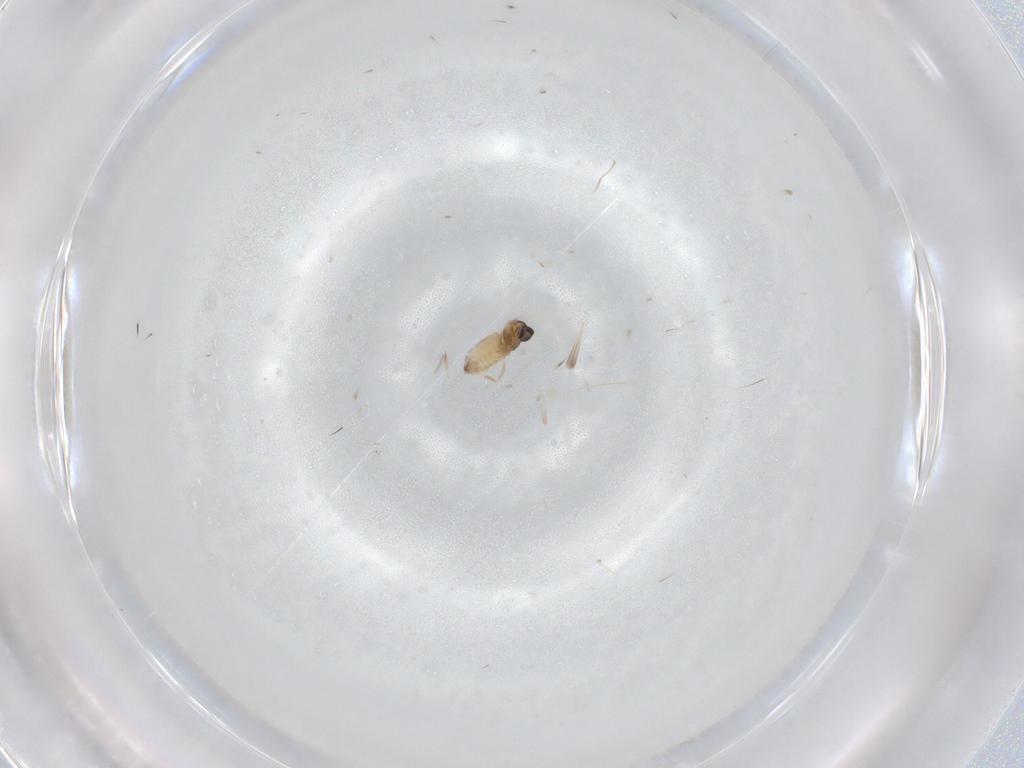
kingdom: Animalia
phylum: Arthropoda
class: Insecta
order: Diptera
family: Cecidomyiidae
